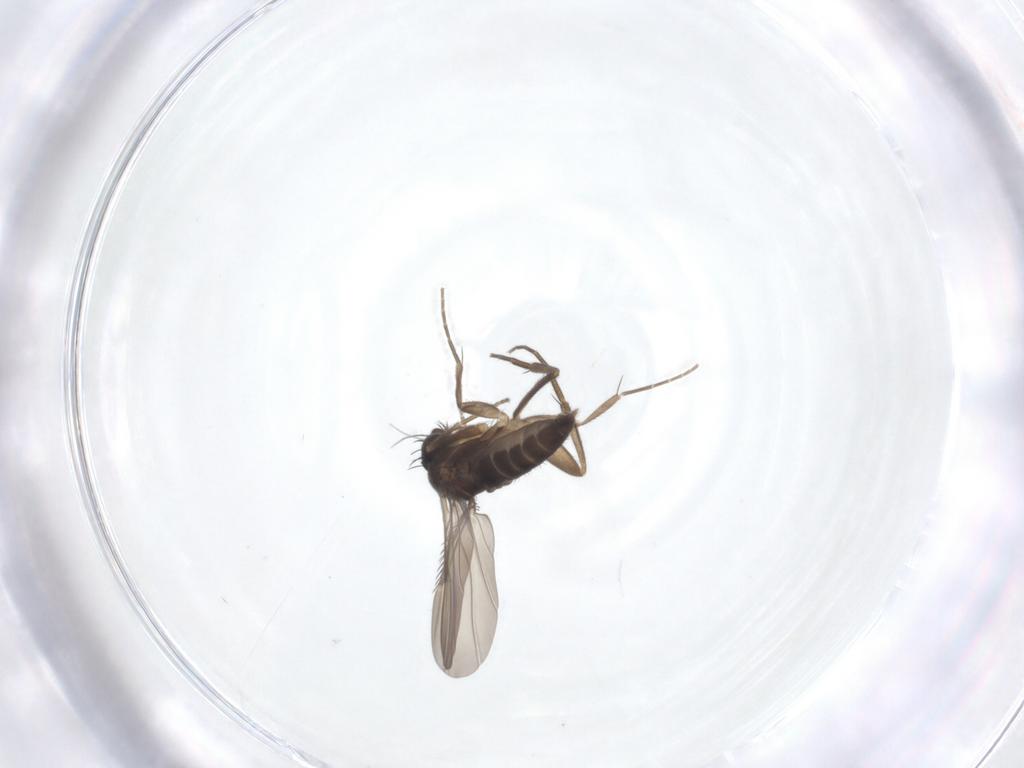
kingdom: Animalia
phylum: Arthropoda
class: Insecta
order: Diptera
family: Phoridae
